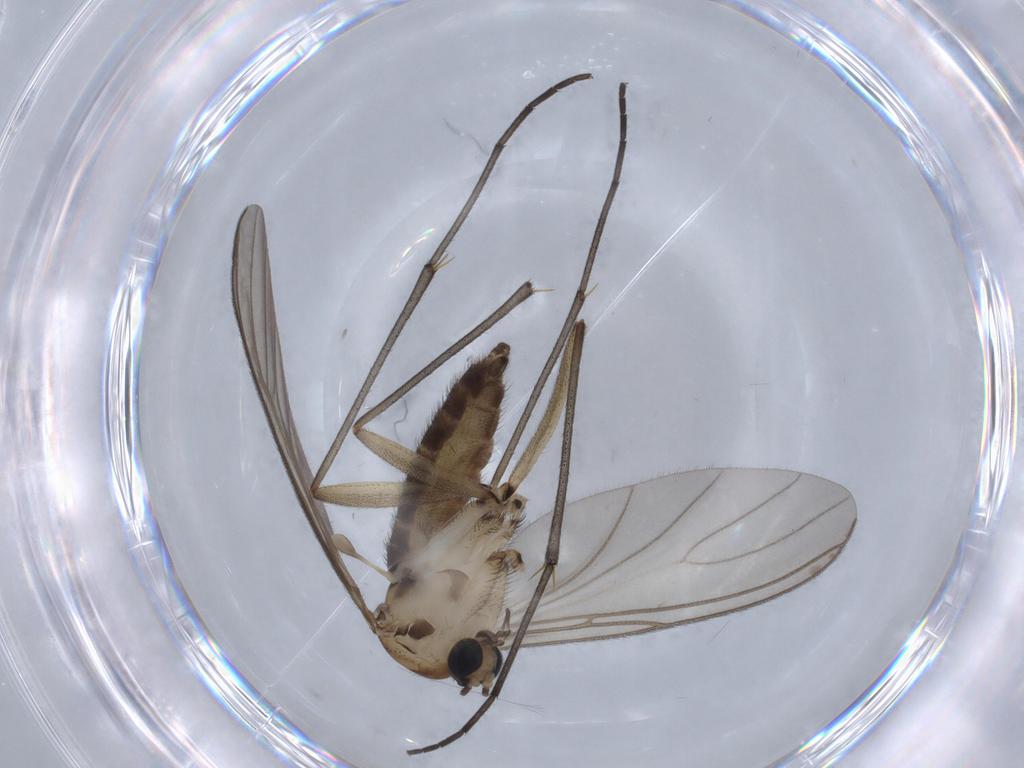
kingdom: Animalia
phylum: Arthropoda
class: Insecta
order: Diptera
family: Sciaridae
